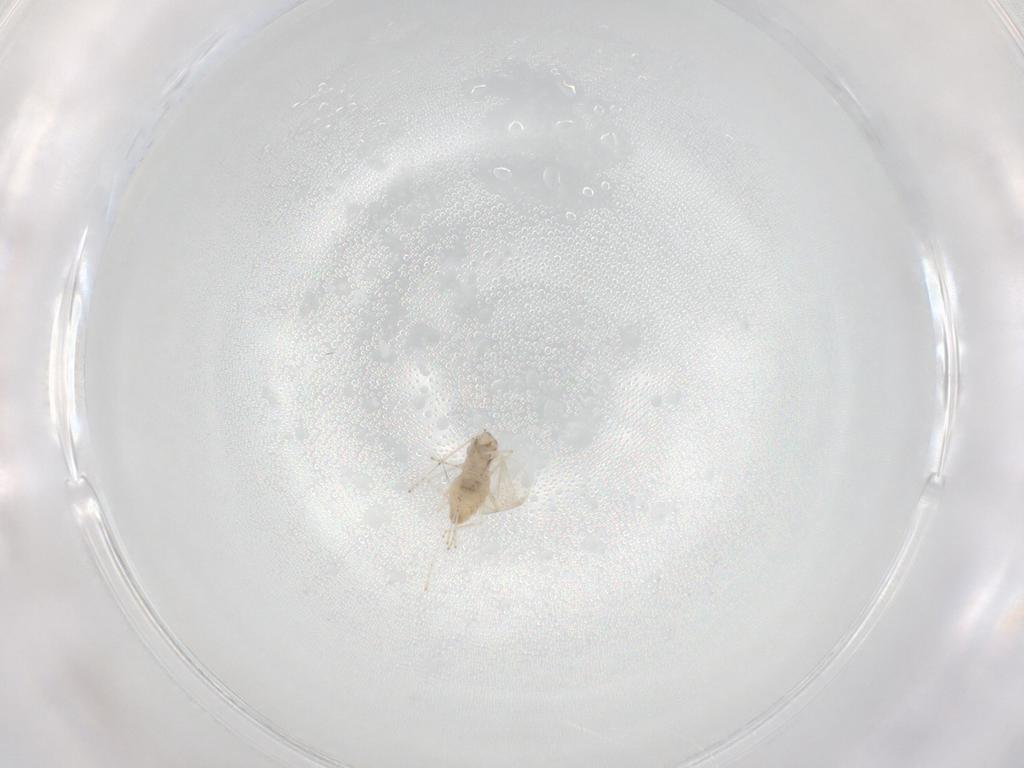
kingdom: Animalia
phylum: Arthropoda
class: Insecta
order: Diptera
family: Cecidomyiidae
